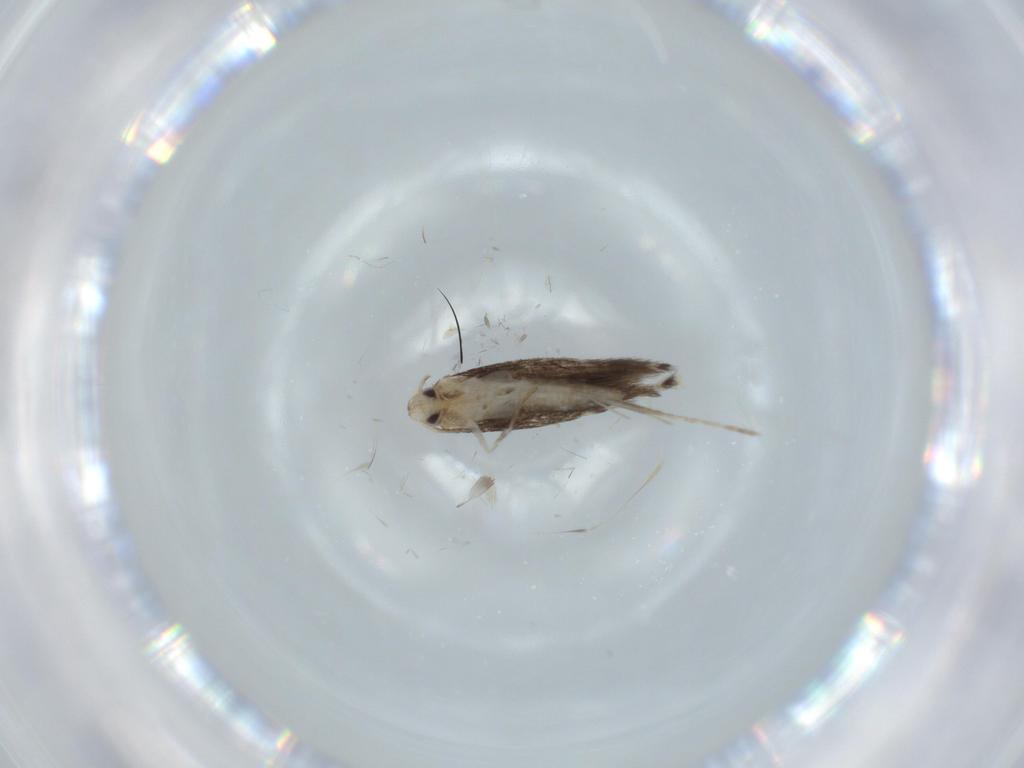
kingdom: Animalia
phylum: Arthropoda
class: Insecta
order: Lepidoptera
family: Gracillariidae
